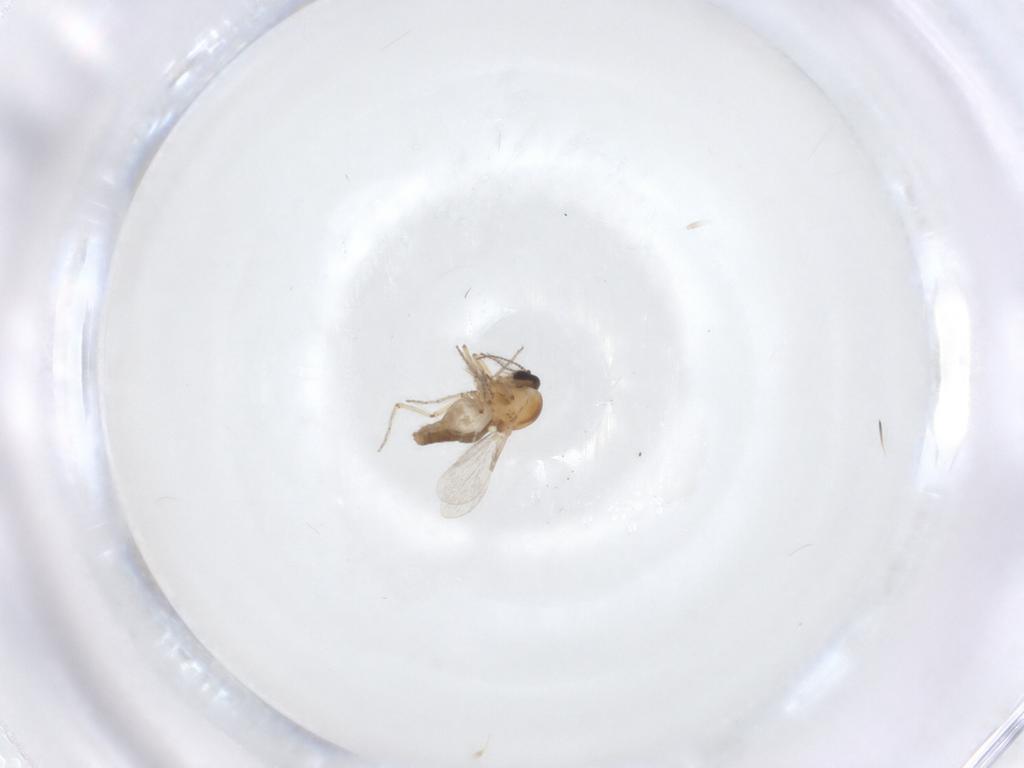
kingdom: Animalia
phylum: Arthropoda
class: Insecta
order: Diptera
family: Ceratopogonidae
